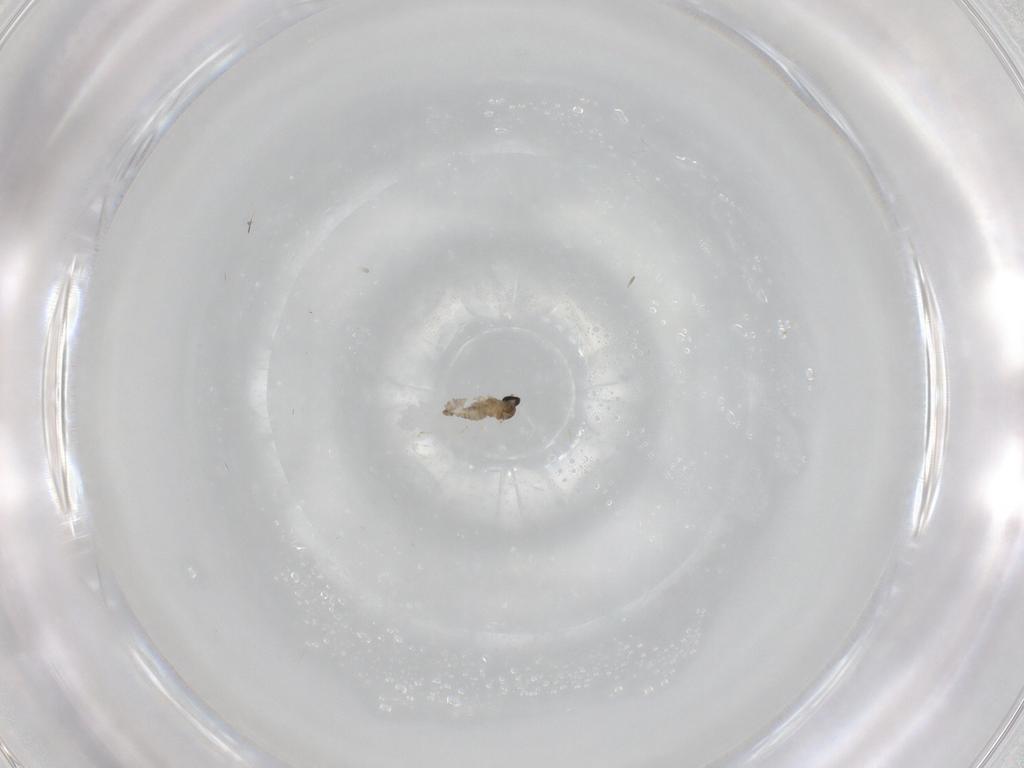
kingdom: Animalia
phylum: Arthropoda
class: Insecta
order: Diptera
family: Cecidomyiidae
